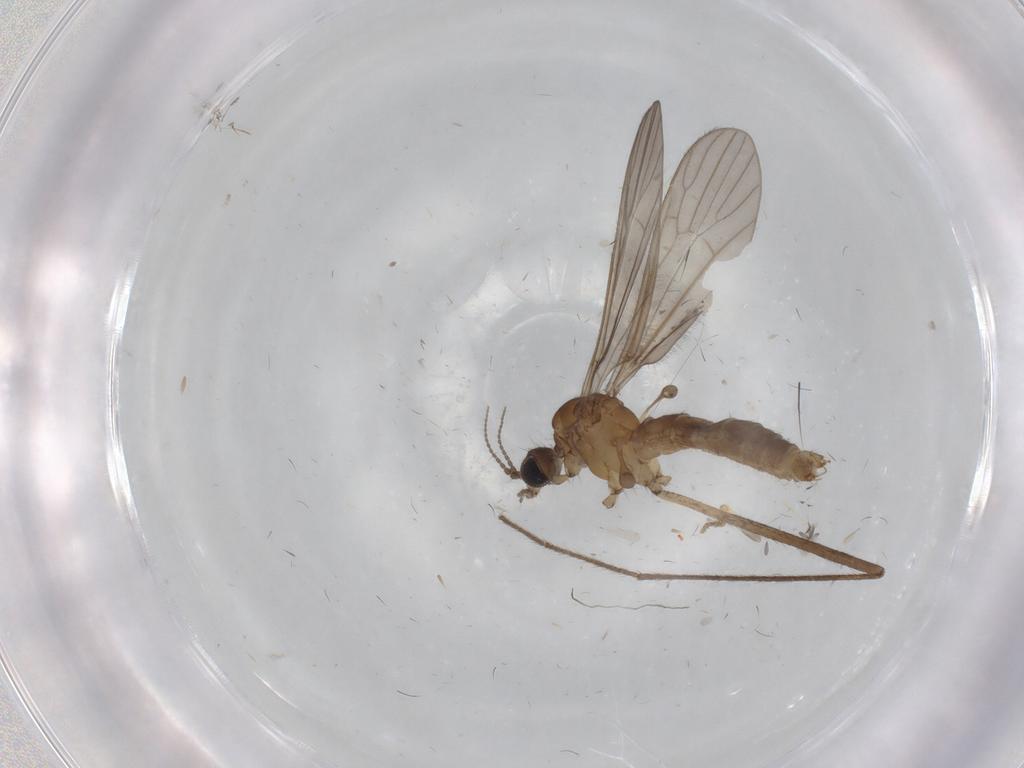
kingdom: Animalia
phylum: Arthropoda
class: Insecta
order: Diptera
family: Limoniidae
